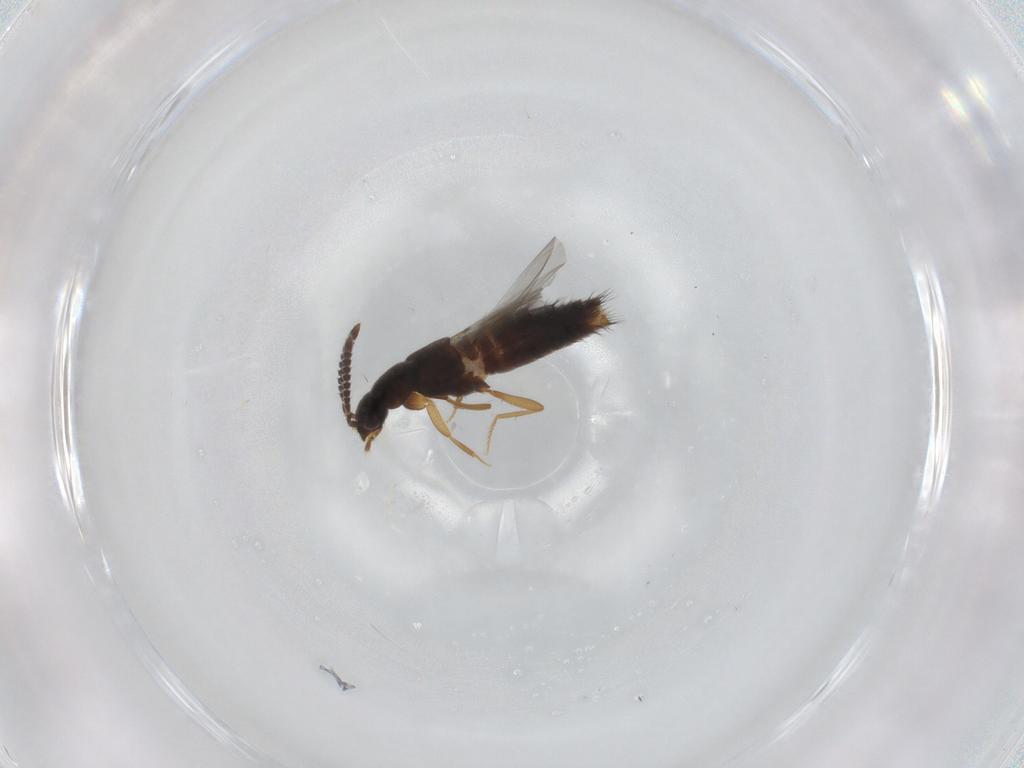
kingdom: Animalia
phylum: Arthropoda
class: Insecta
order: Coleoptera
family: Staphylinidae
